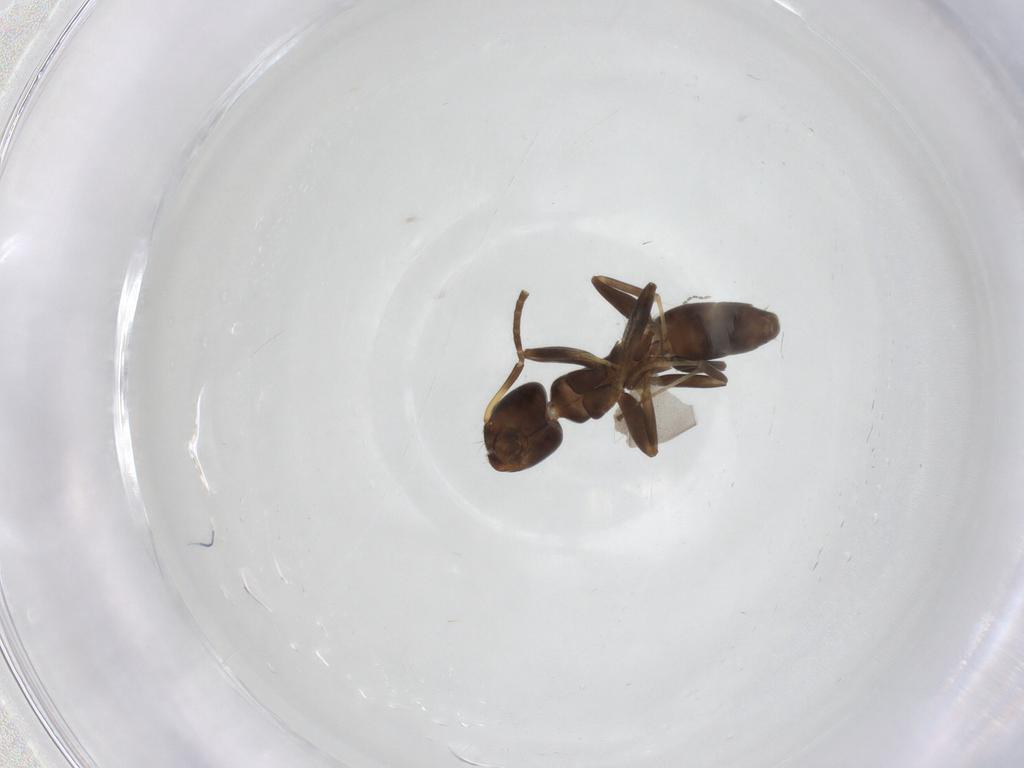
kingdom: Animalia
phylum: Arthropoda
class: Insecta
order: Hymenoptera
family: Formicidae
